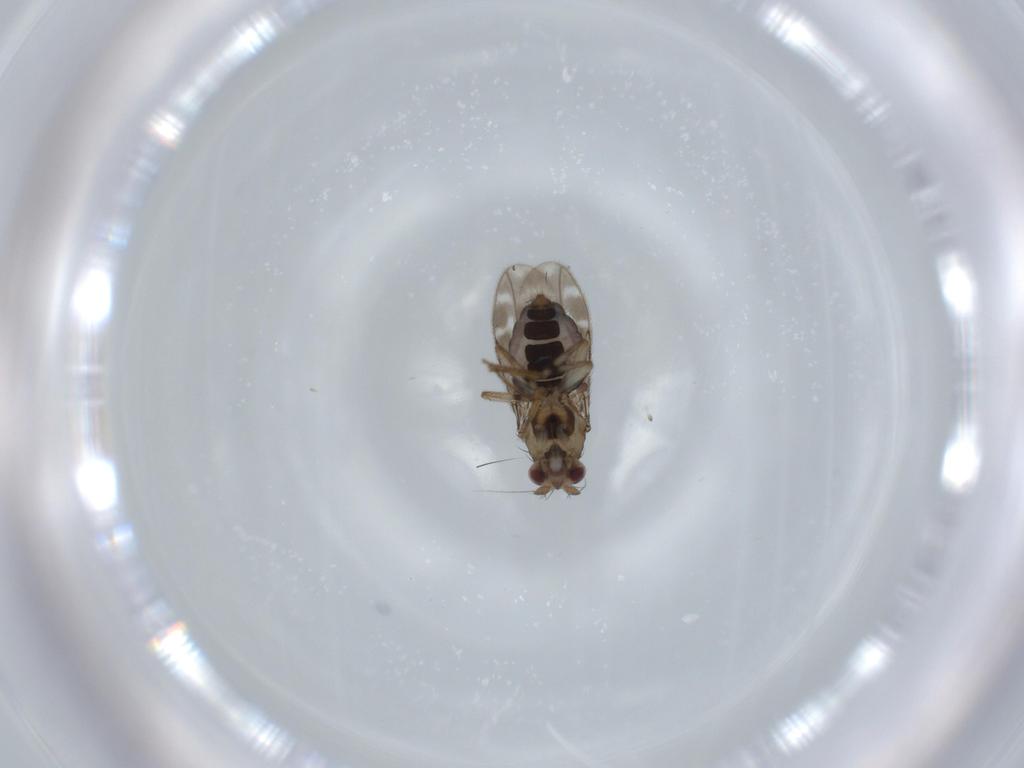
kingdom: Animalia
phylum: Arthropoda
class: Insecta
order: Diptera
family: Sphaeroceridae
